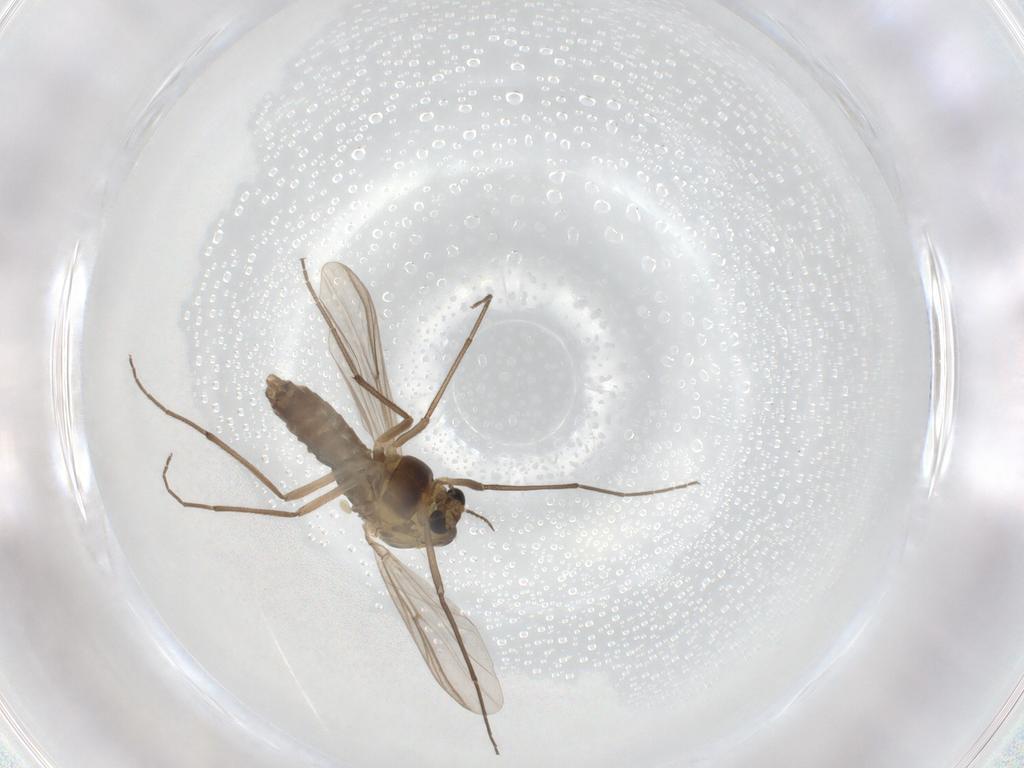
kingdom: Animalia
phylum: Arthropoda
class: Insecta
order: Diptera
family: Chironomidae
